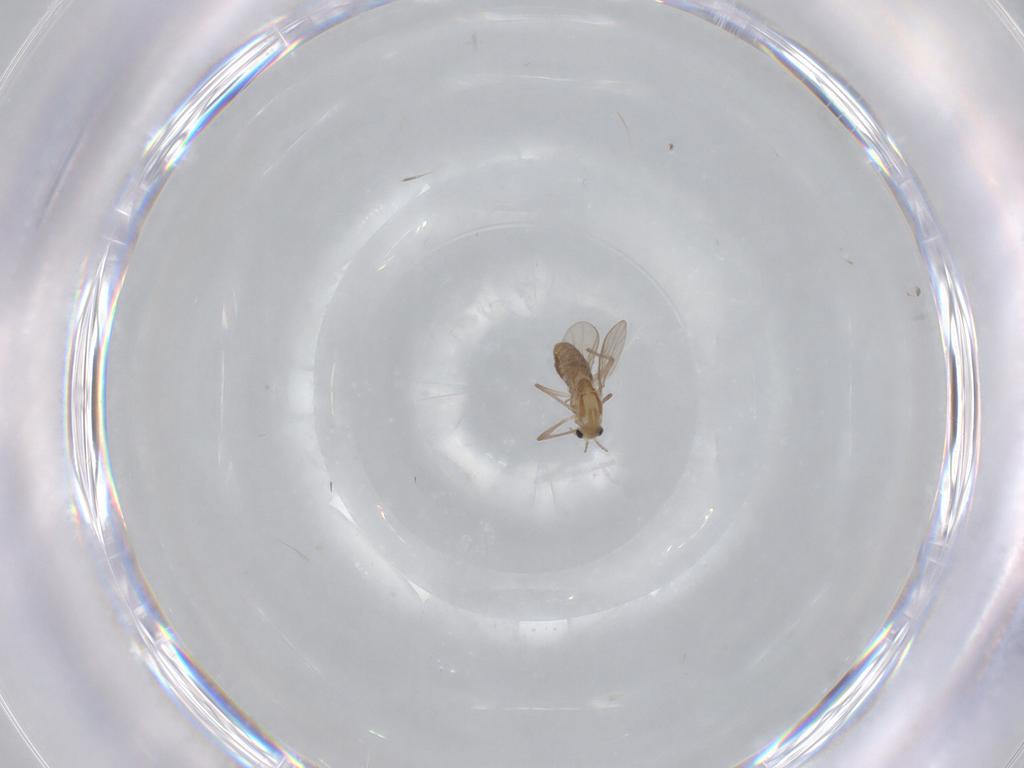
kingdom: Animalia
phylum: Arthropoda
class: Insecta
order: Diptera
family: Chironomidae
